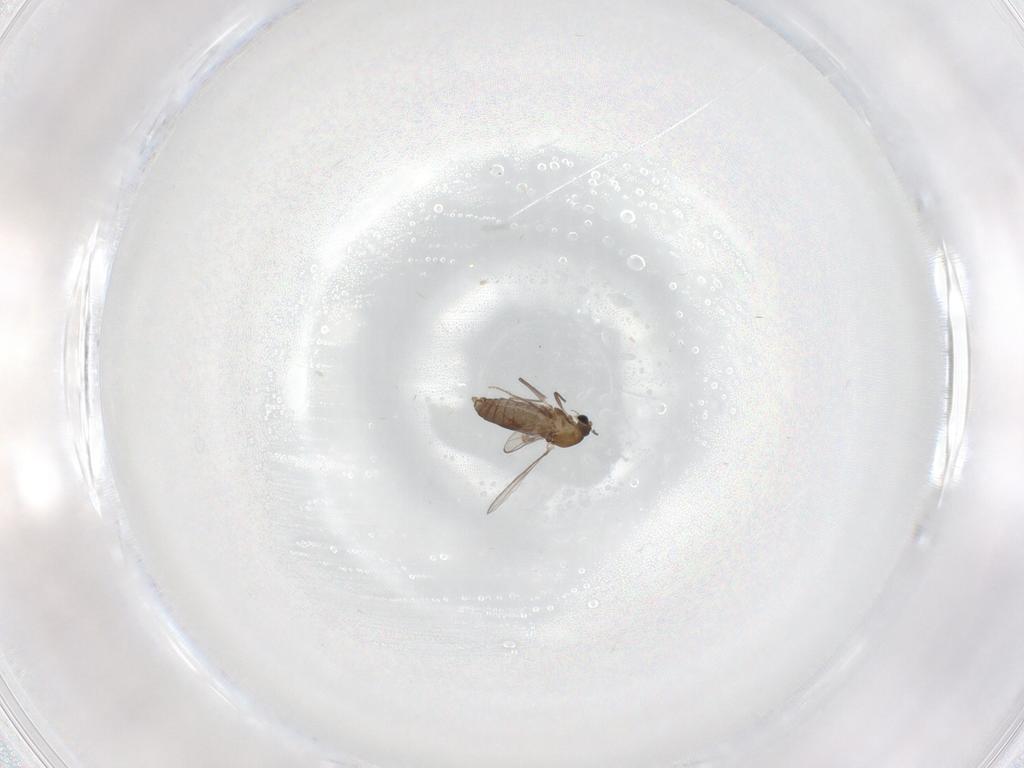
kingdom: Animalia
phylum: Arthropoda
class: Insecta
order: Diptera
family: Chironomidae
